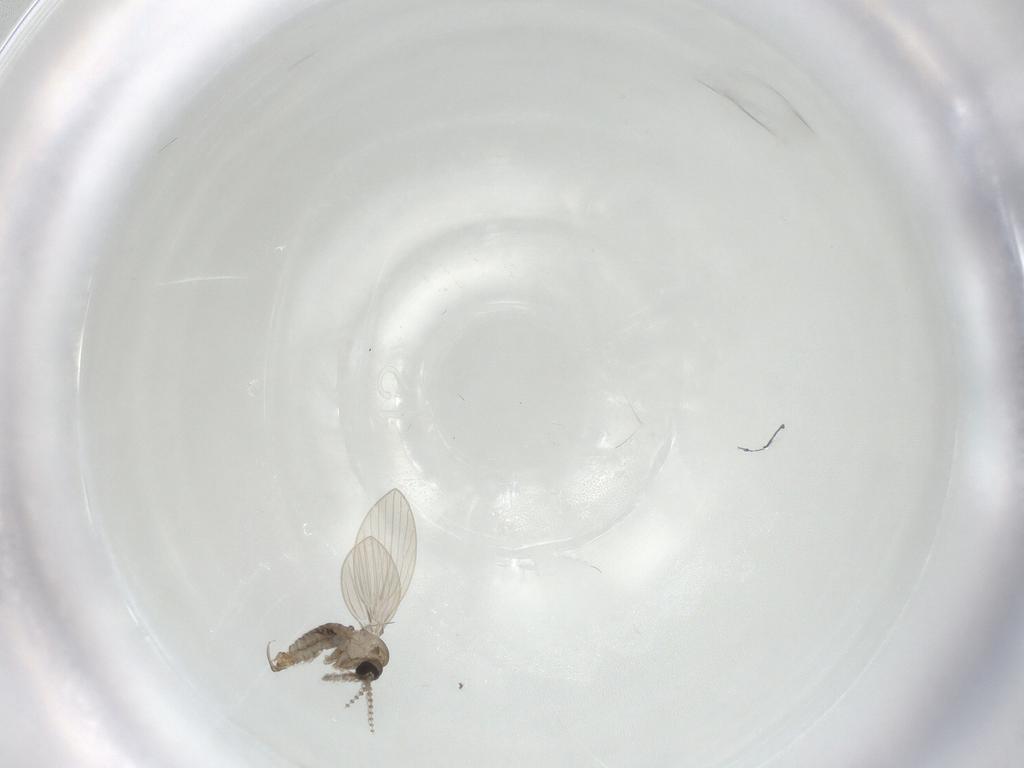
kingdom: Animalia
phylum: Arthropoda
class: Insecta
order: Diptera
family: Psychodidae
